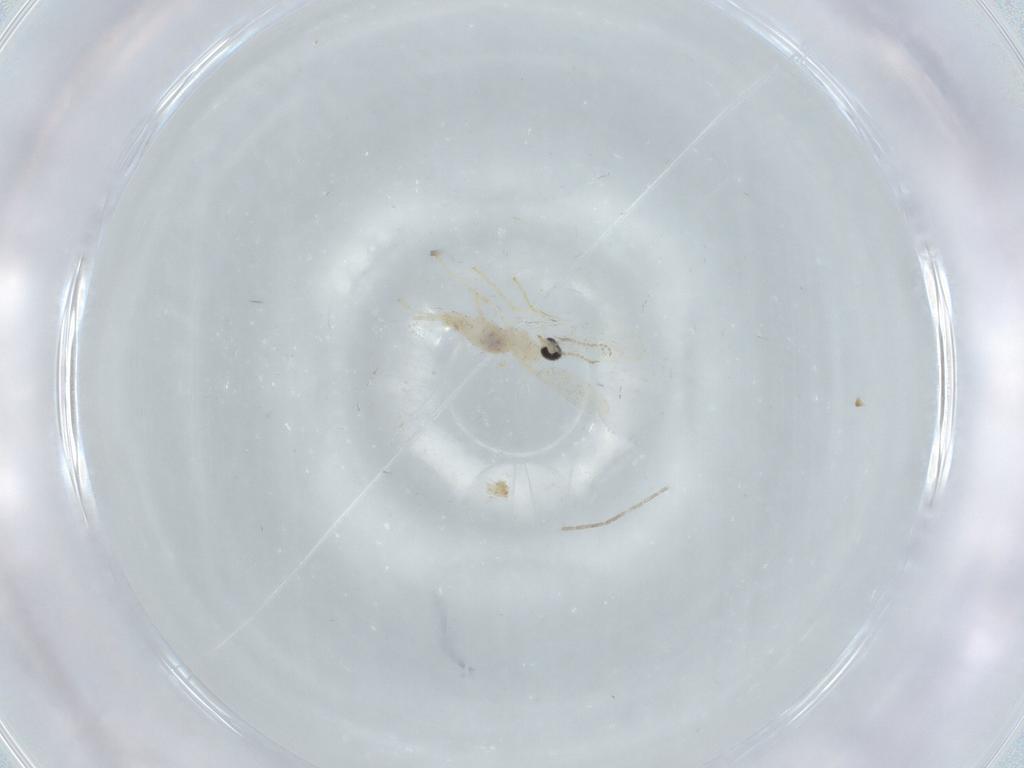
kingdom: Animalia
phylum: Arthropoda
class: Insecta
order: Diptera
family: Cecidomyiidae
